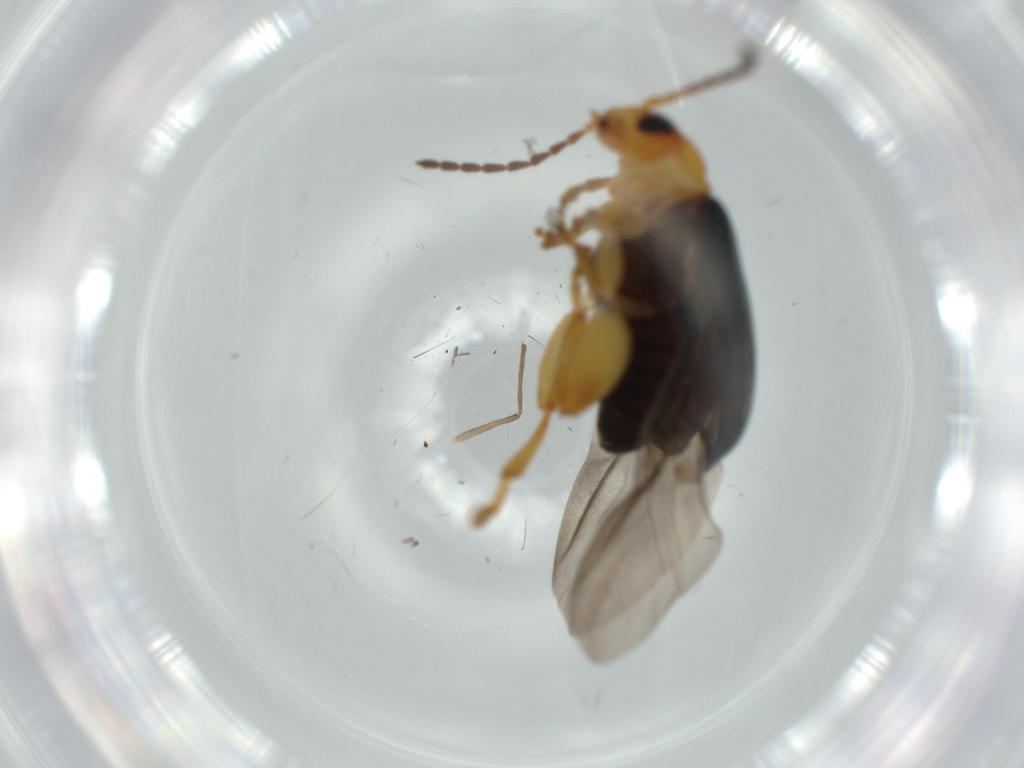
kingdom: Animalia
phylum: Arthropoda
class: Insecta
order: Coleoptera
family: Chrysomelidae
